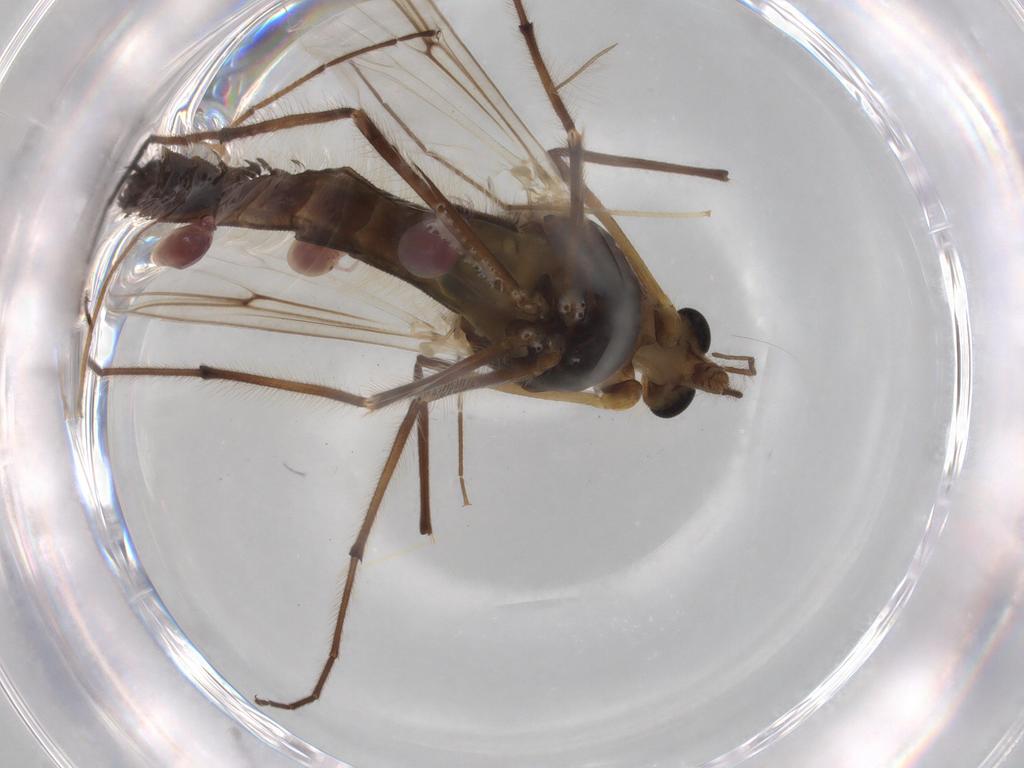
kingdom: Animalia
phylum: Arthropoda
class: Insecta
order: Diptera
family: Chironomidae
